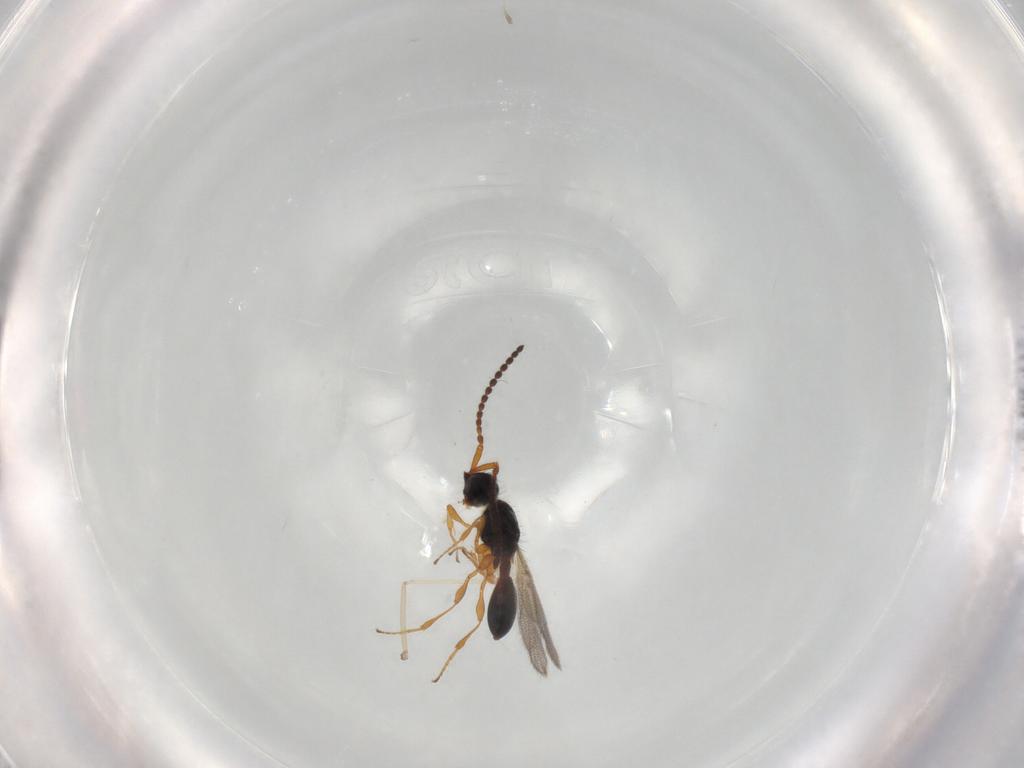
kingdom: Animalia
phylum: Arthropoda
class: Insecta
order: Hymenoptera
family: Diapriidae
